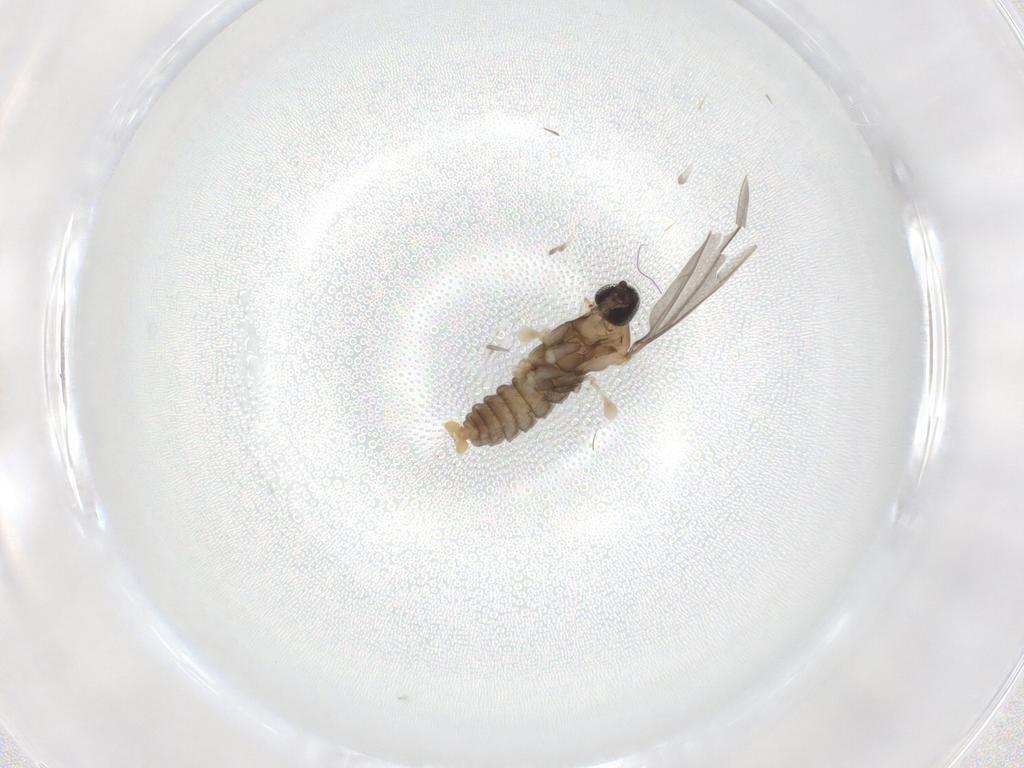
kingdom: Animalia
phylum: Arthropoda
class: Insecta
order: Diptera
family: Cecidomyiidae
